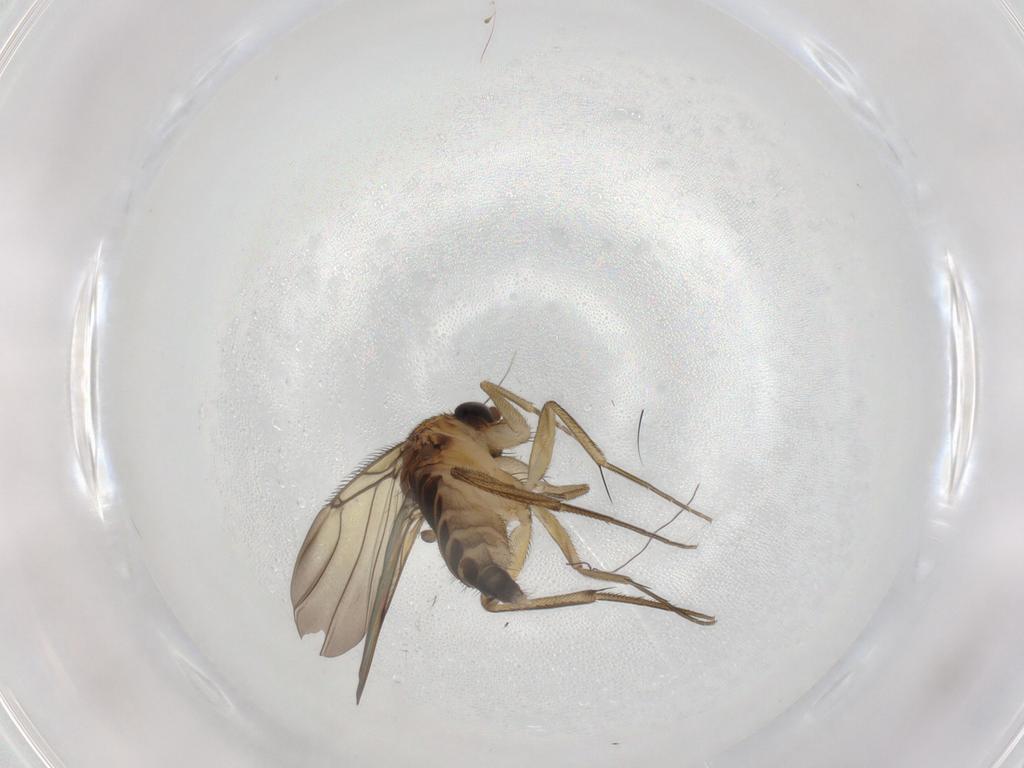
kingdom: Animalia
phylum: Arthropoda
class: Insecta
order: Diptera
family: Phoridae
